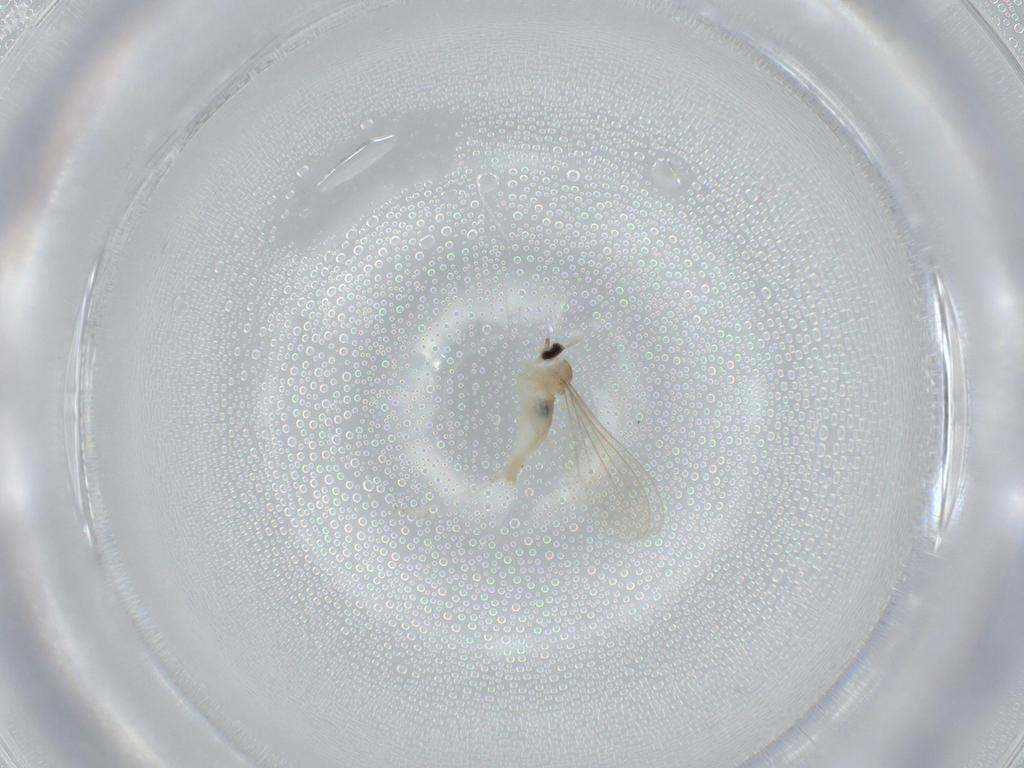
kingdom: Animalia
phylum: Arthropoda
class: Insecta
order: Diptera
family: Cecidomyiidae
